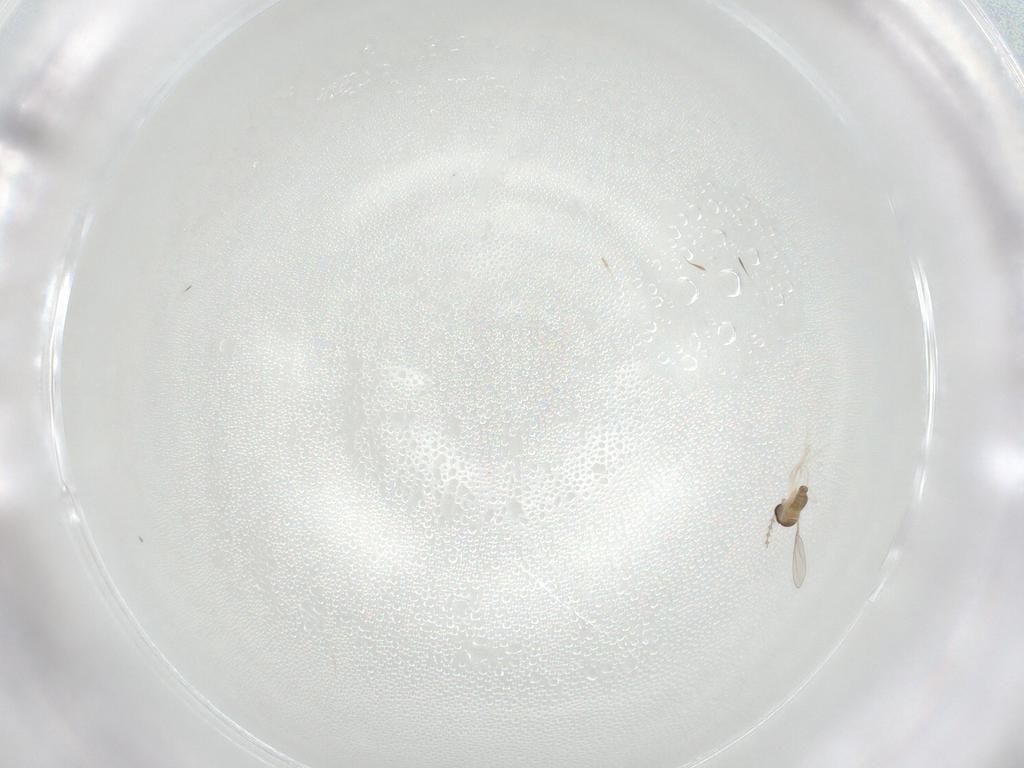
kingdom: Animalia
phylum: Arthropoda
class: Insecta
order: Diptera
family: Cecidomyiidae
